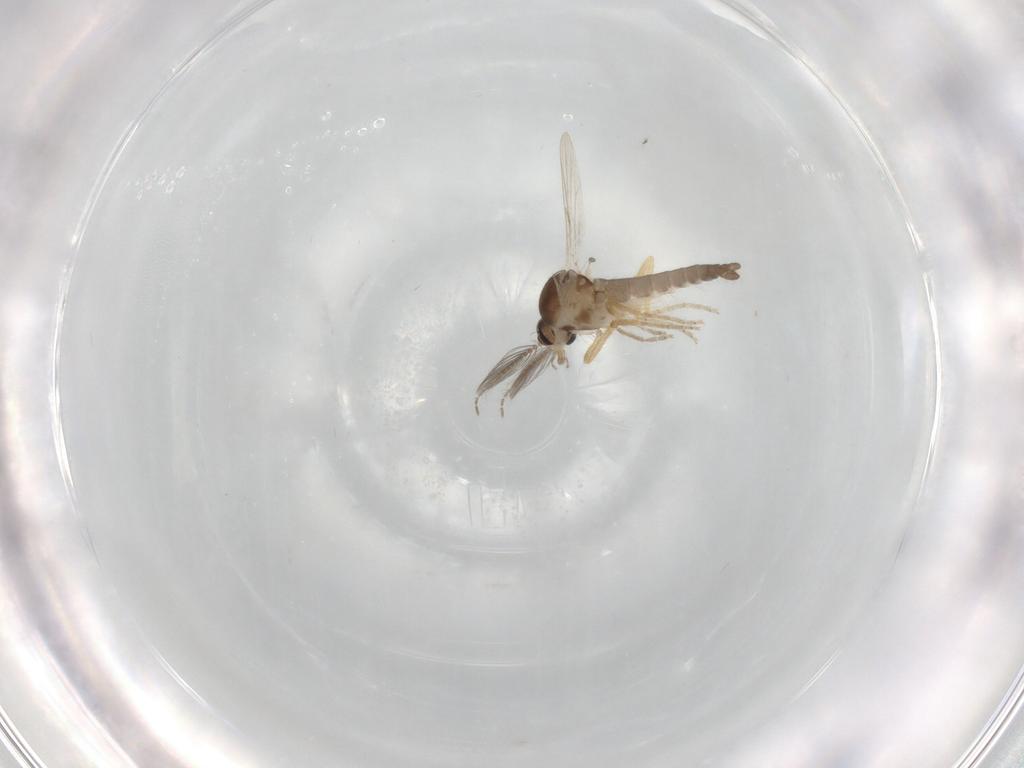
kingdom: Animalia
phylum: Arthropoda
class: Insecta
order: Diptera
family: Ceratopogonidae
